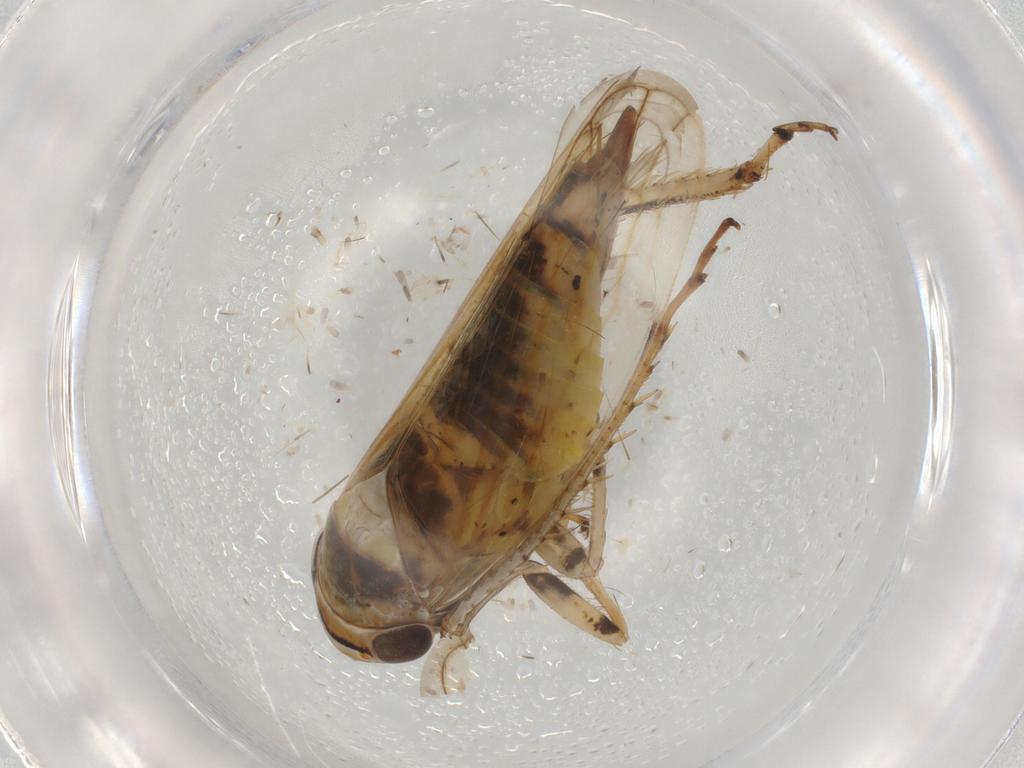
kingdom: Animalia
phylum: Arthropoda
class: Insecta
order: Hemiptera
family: Cicadellidae
